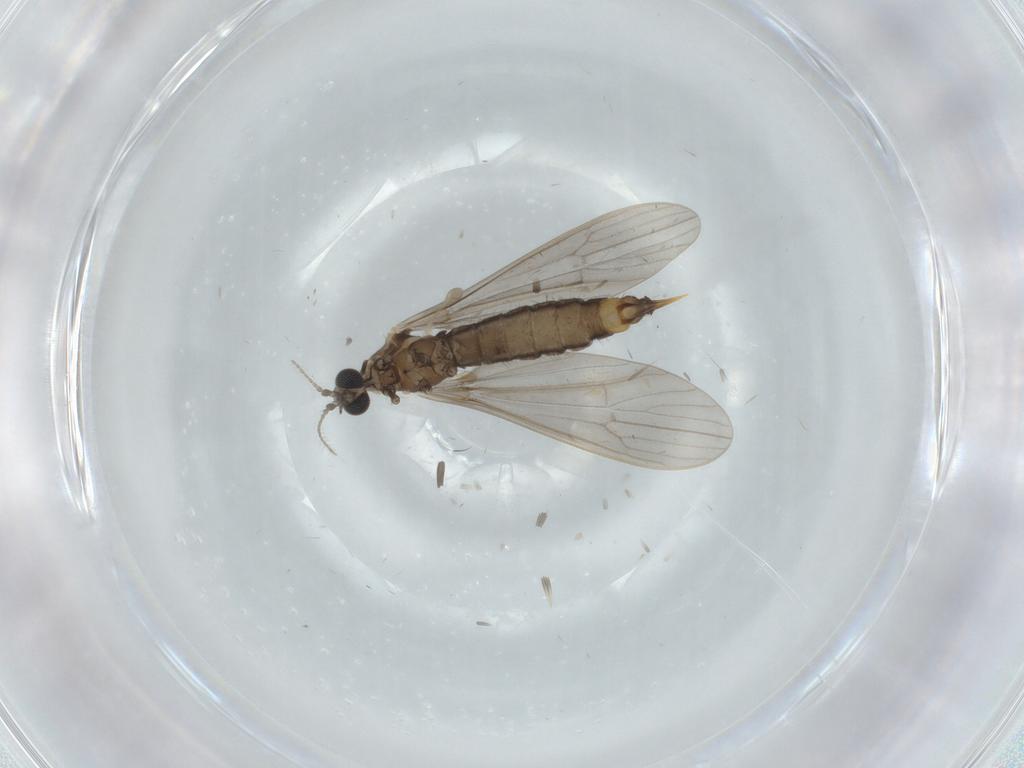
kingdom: Animalia
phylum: Arthropoda
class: Insecta
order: Diptera
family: Limoniidae
